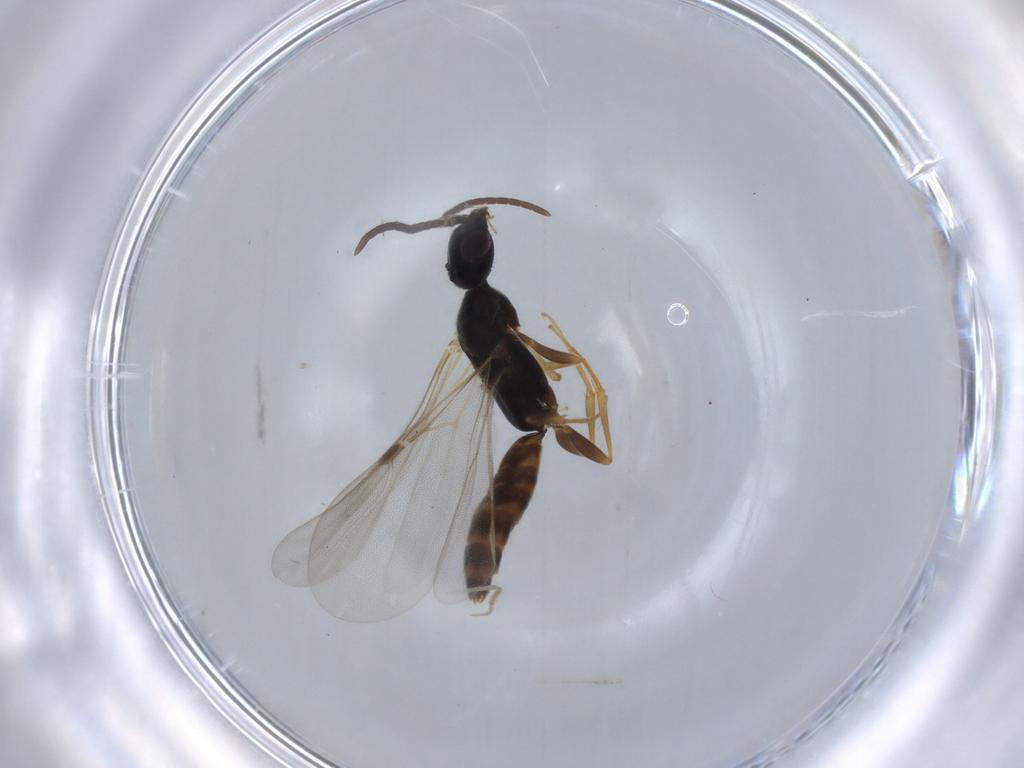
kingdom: Animalia
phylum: Arthropoda
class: Insecta
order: Hymenoptera
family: Bethylidae
